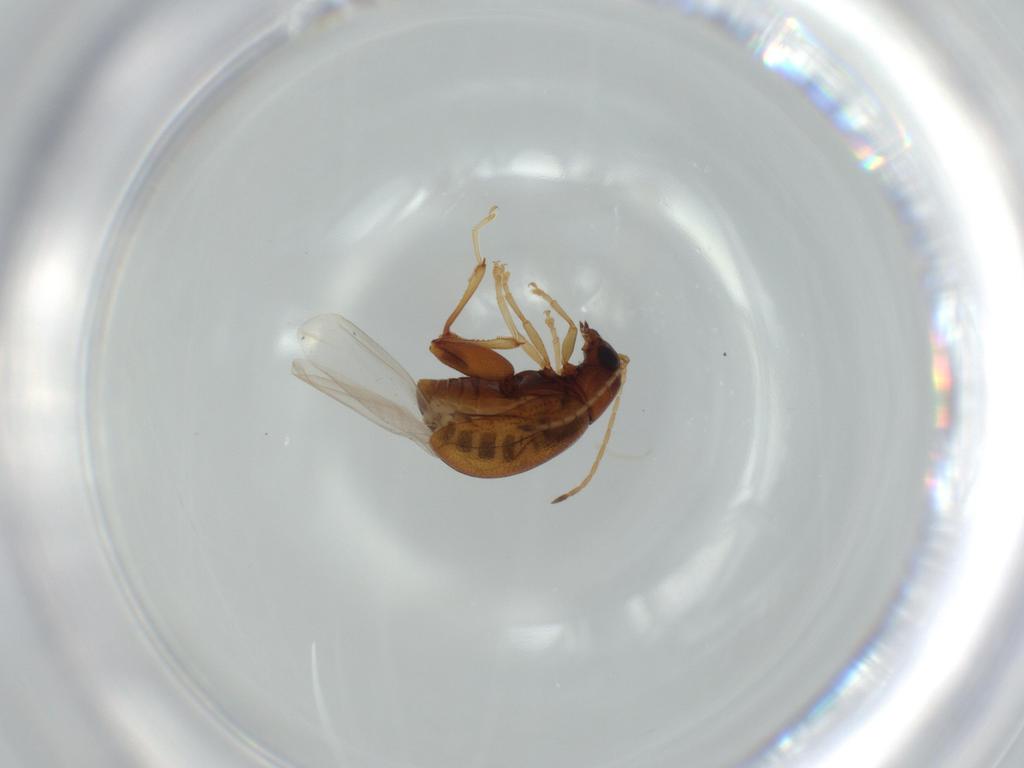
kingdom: Animalia
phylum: Arthropoda
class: Insecta
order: Coleoptera
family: Chrysomelidae
